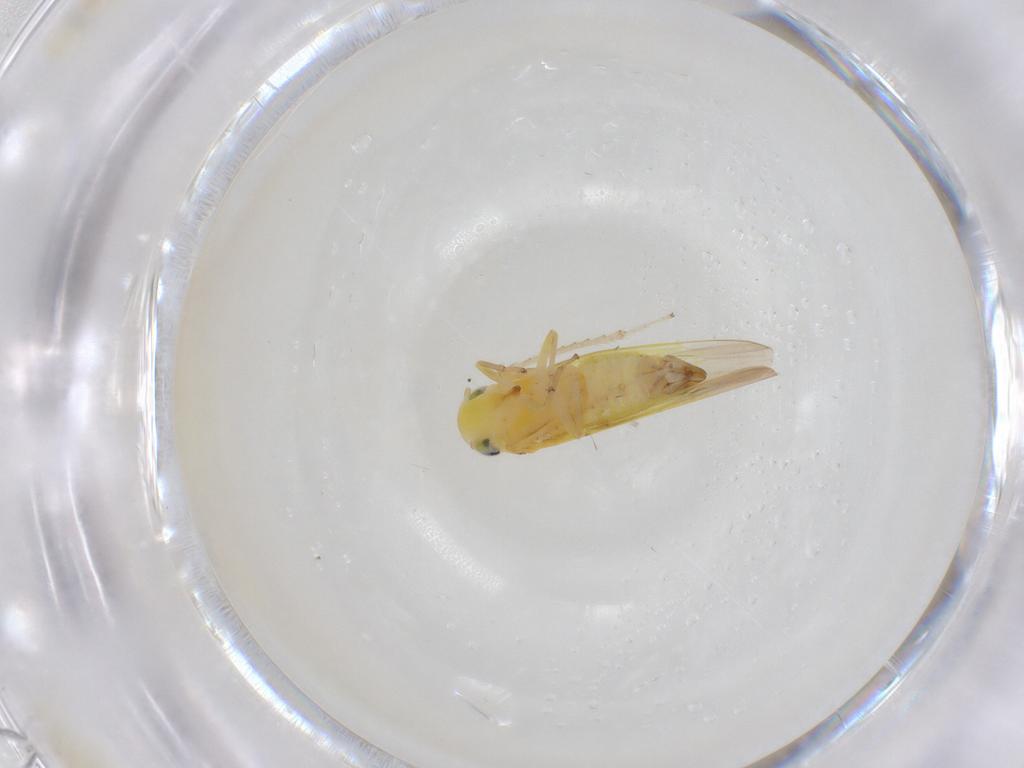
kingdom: Animalia
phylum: Arthropoda
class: Insecta
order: Hemiptera
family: Cicadellidae
